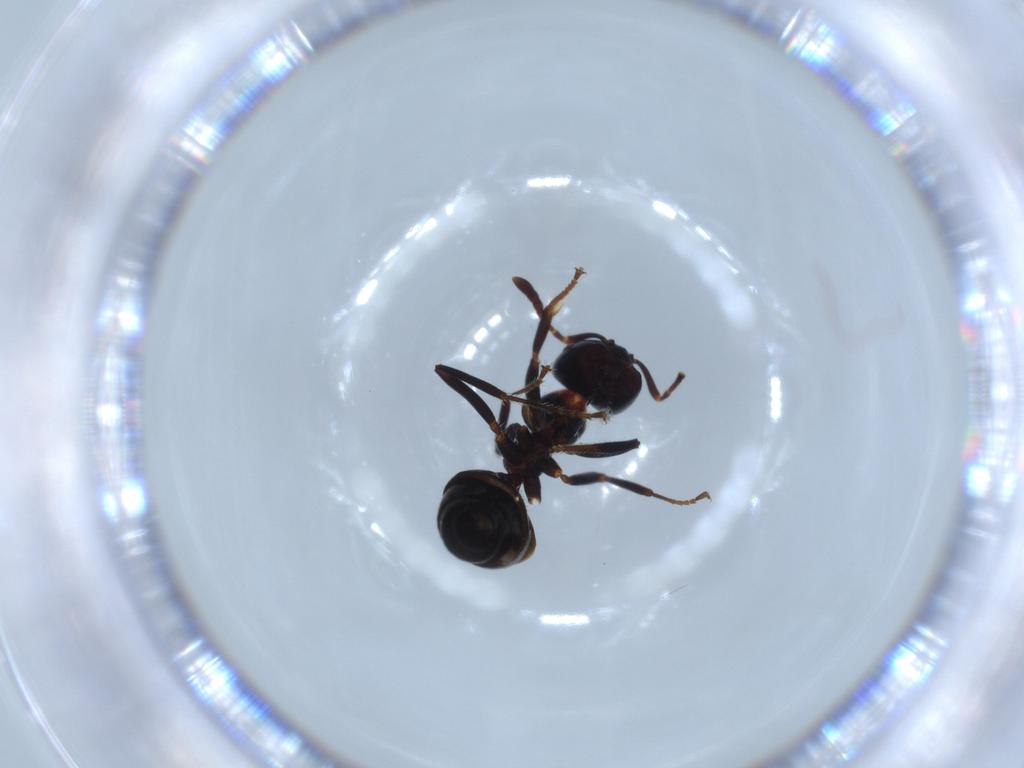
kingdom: Animalia
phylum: Arthropoda
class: Insecta
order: Hymenoptera
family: Formicidae
